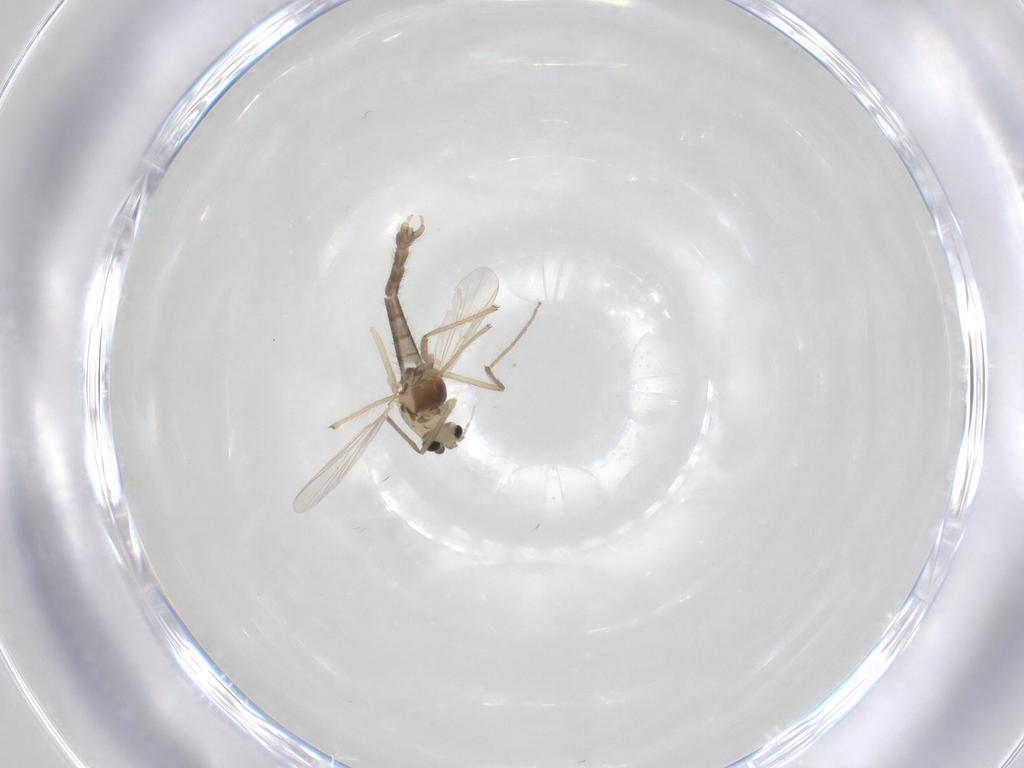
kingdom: Animalia
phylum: Arthropoda
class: Insecta
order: Diptera
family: Chironomidae
